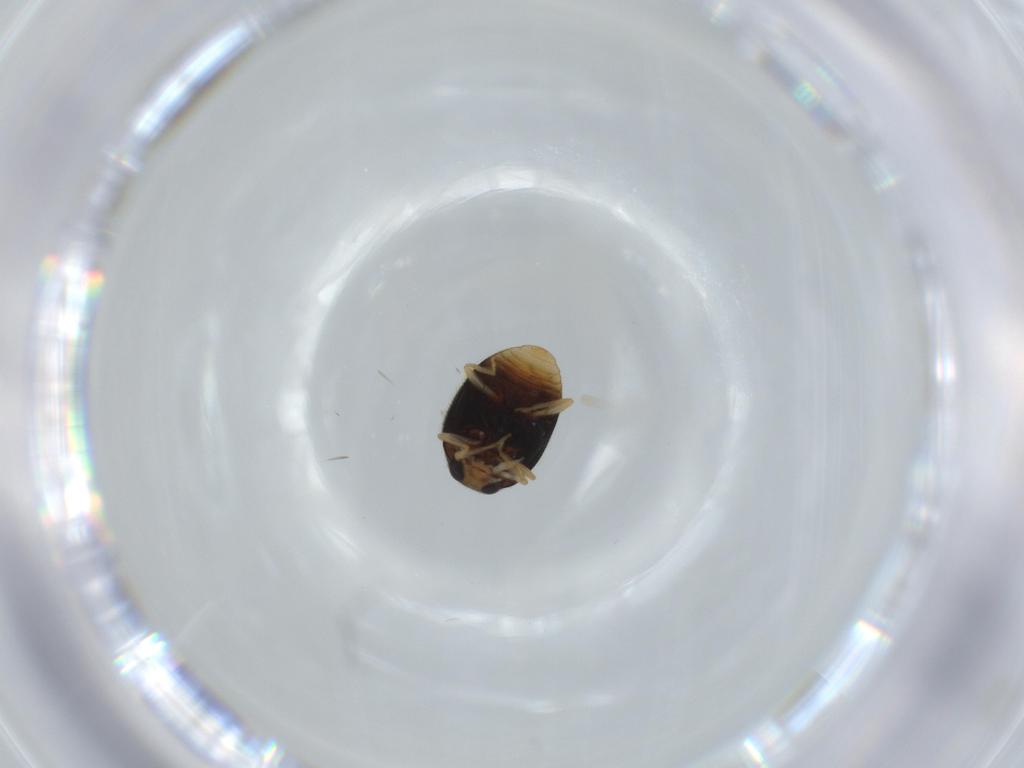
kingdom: Animalia
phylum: Arthropoda
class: Insecta
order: Coleoptera
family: Coccinellidae
